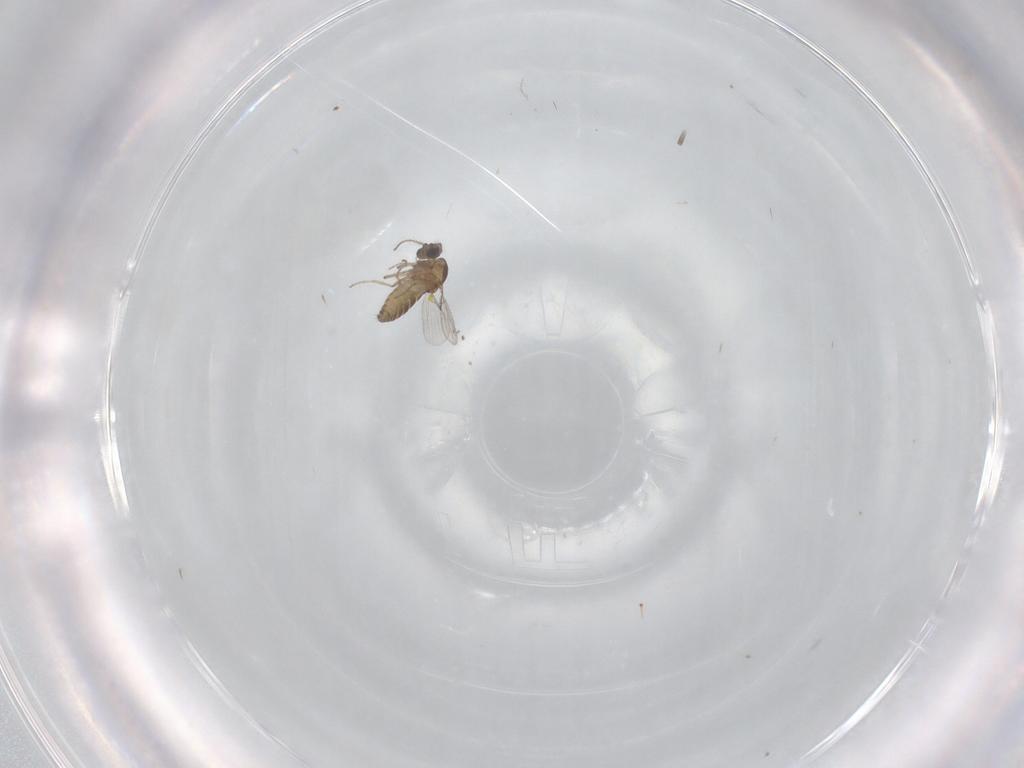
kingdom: Animalia
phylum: Arthropoda
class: Insecta
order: Diptera
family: Ceratopogonidae
